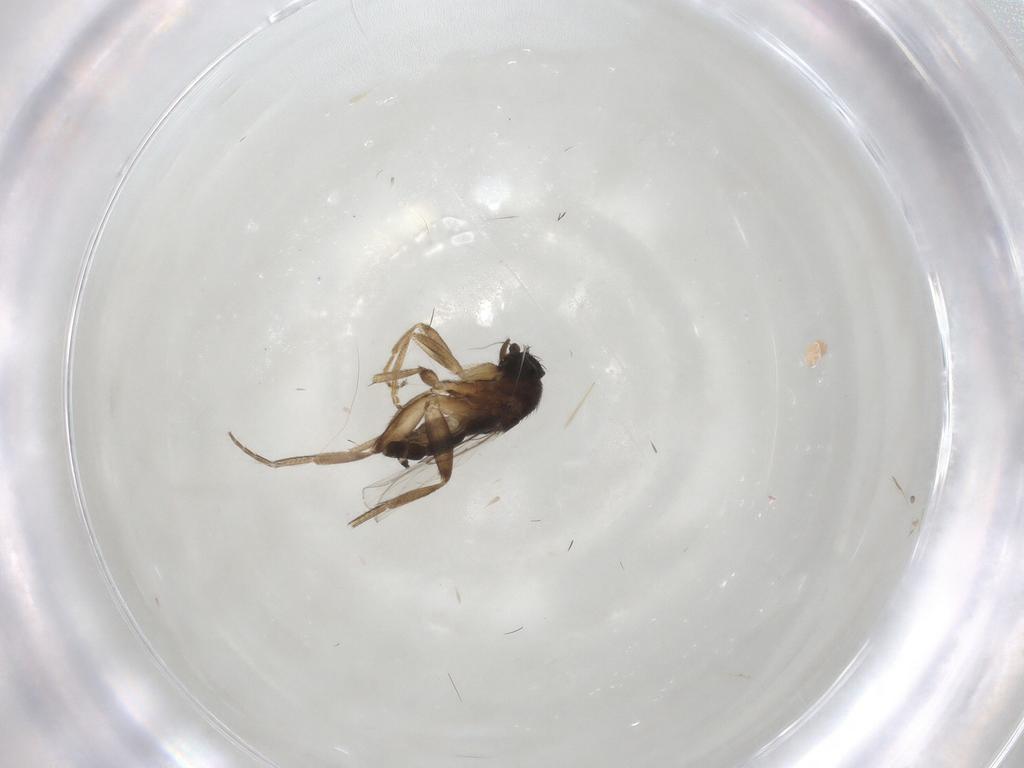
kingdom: Animalia
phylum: Arthropoda
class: Insecta
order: Diptera
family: Phoridae
